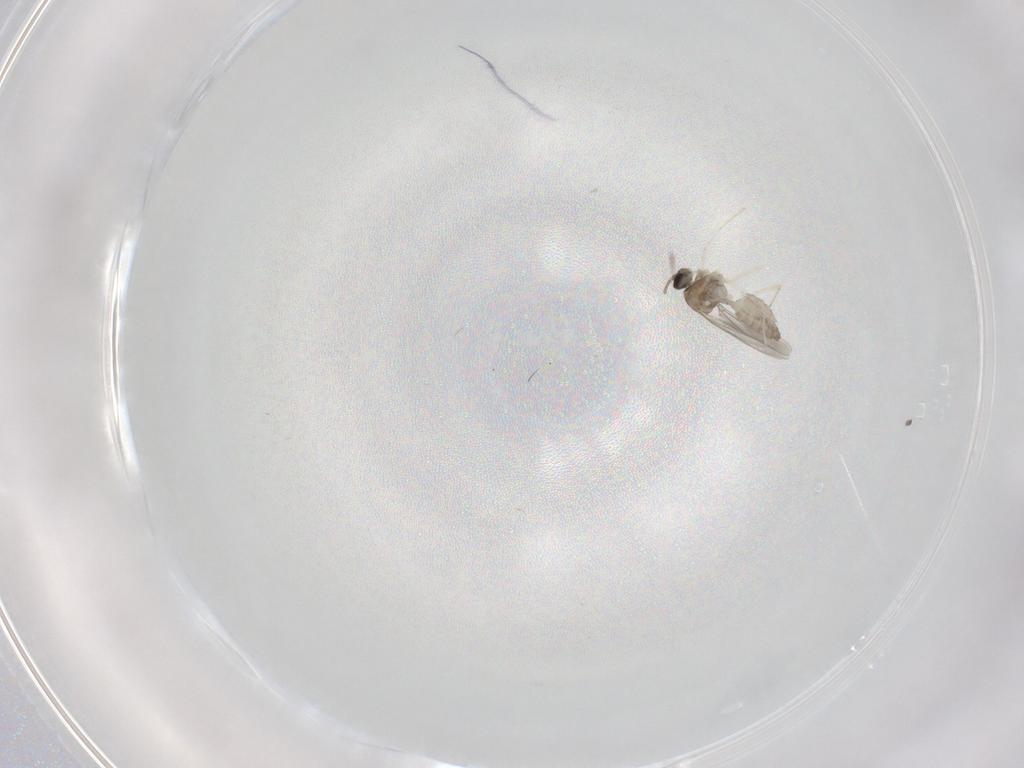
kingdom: Animalia
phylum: Arthropoda
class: Insecta
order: Diptera
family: Cecidomyiidae
